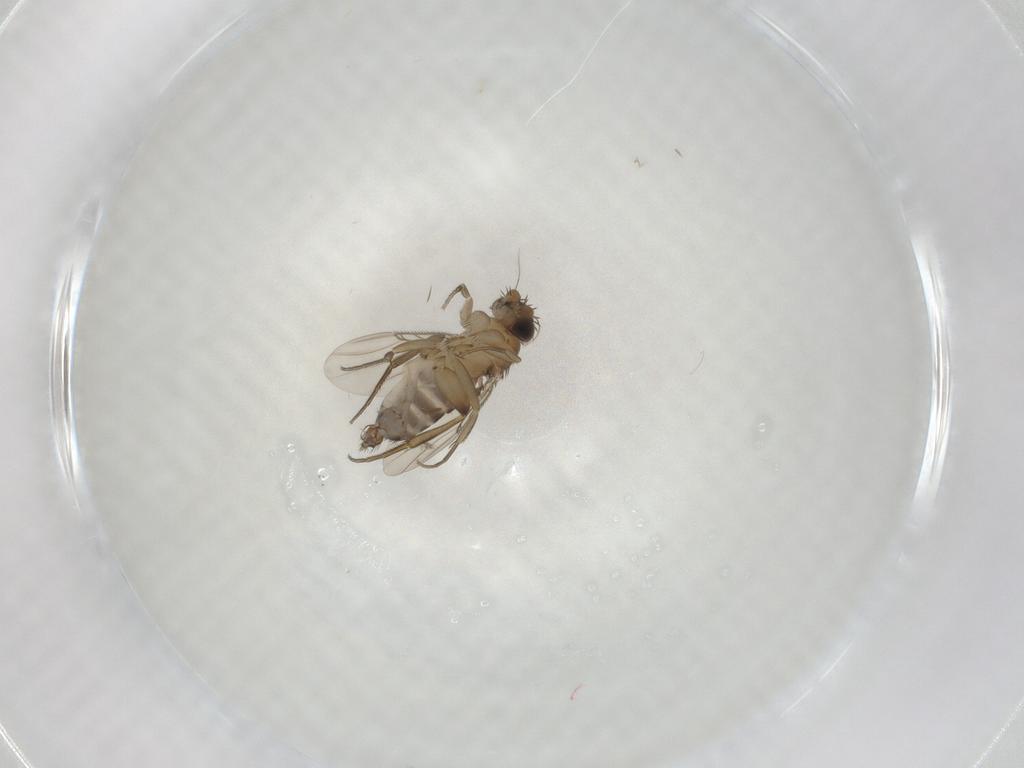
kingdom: Animalia
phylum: Arthropoda
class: Insecta
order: Diptera
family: Phoridae
